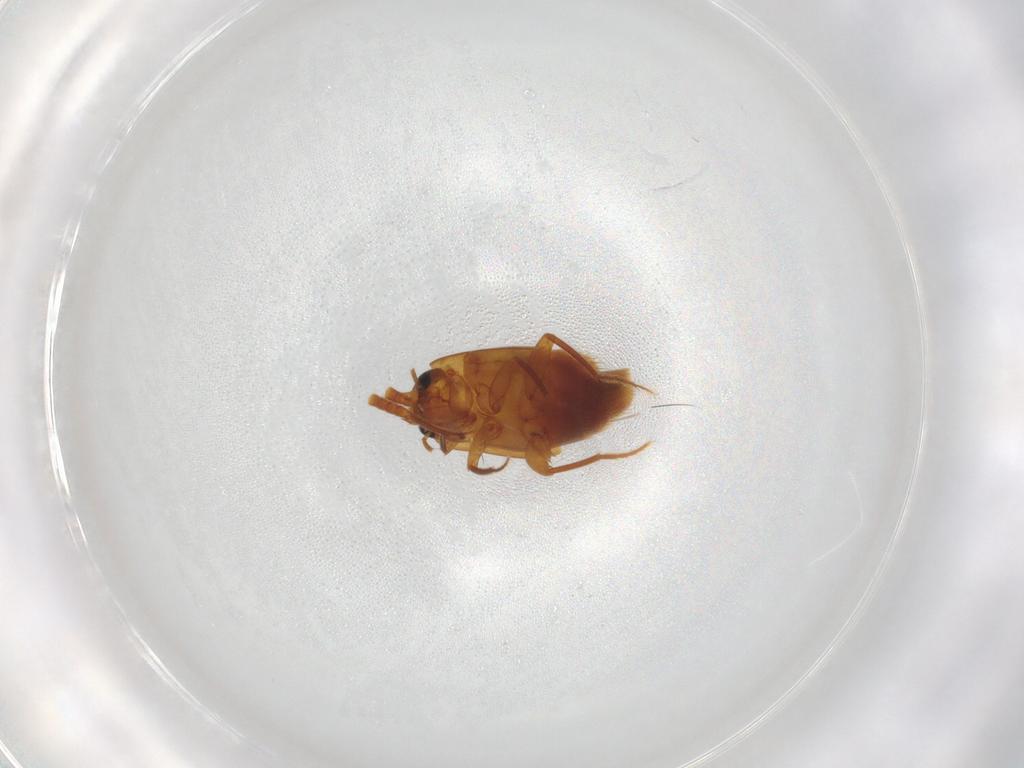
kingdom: Animalia
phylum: Arthropoda
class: Insecta
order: Coleoptera
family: Staphylinidae
